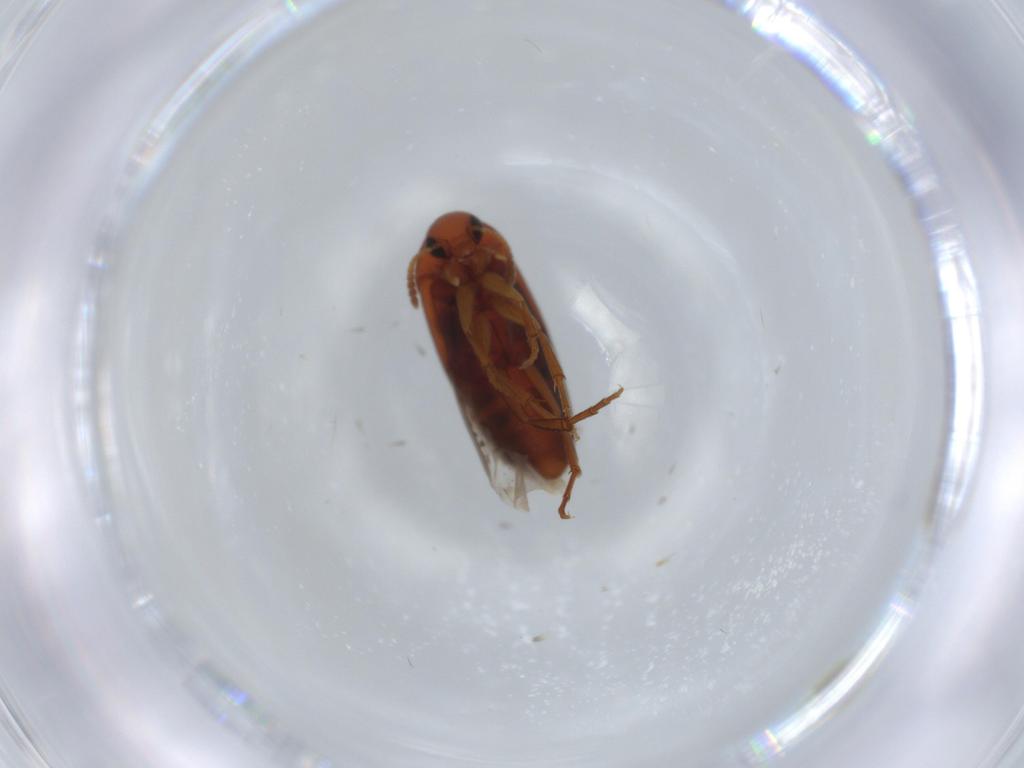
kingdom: Animalia
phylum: Arthropoda
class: Insecta
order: Coleoptera
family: Scraptiidae
